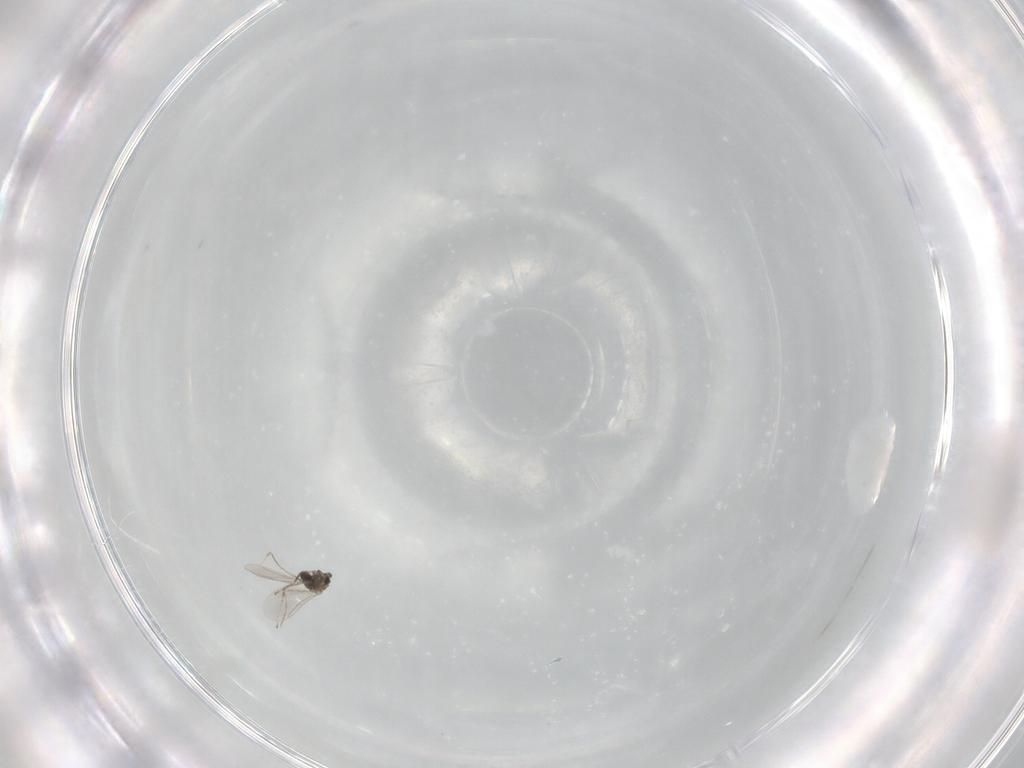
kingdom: Animalia
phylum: Arthropoda
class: Insecta
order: Diptera
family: Cecidomyiidae
